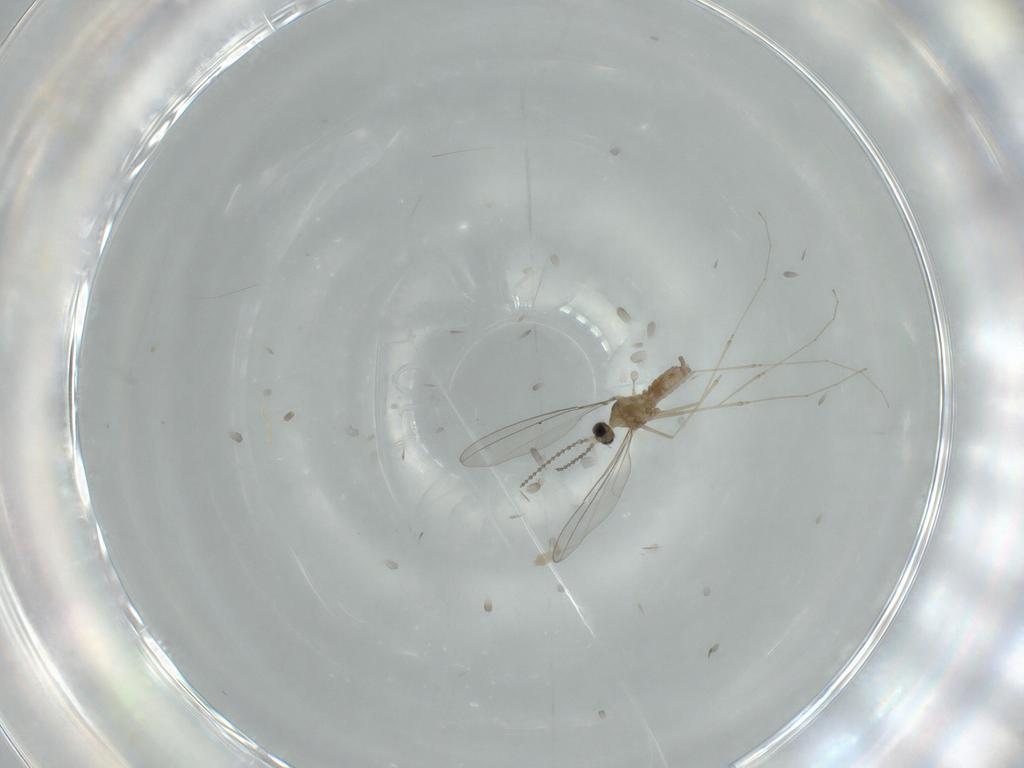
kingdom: Animalia
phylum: Arthropoda
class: Insecta
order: Diptera
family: Cecidomyiidae
